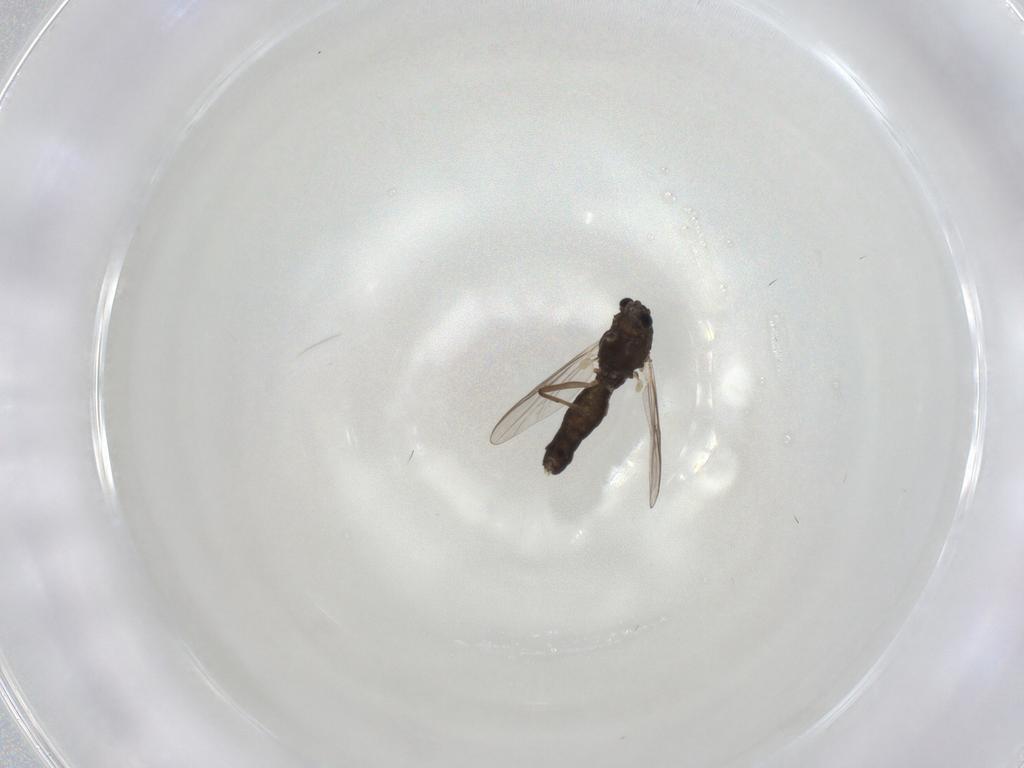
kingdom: Animalia
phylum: Arthropoda
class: Insecta
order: Diptera
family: Chironomidae
